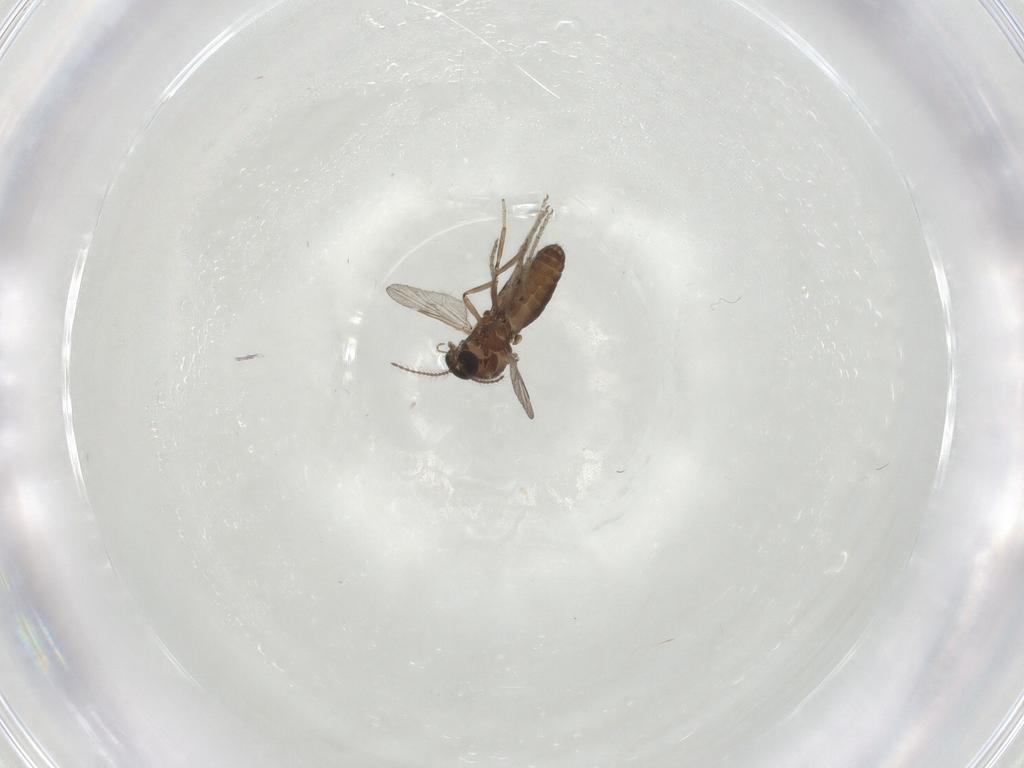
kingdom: Animalia
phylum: Arthropoda
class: Insecta
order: Diptera
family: Ceratopogonidae
